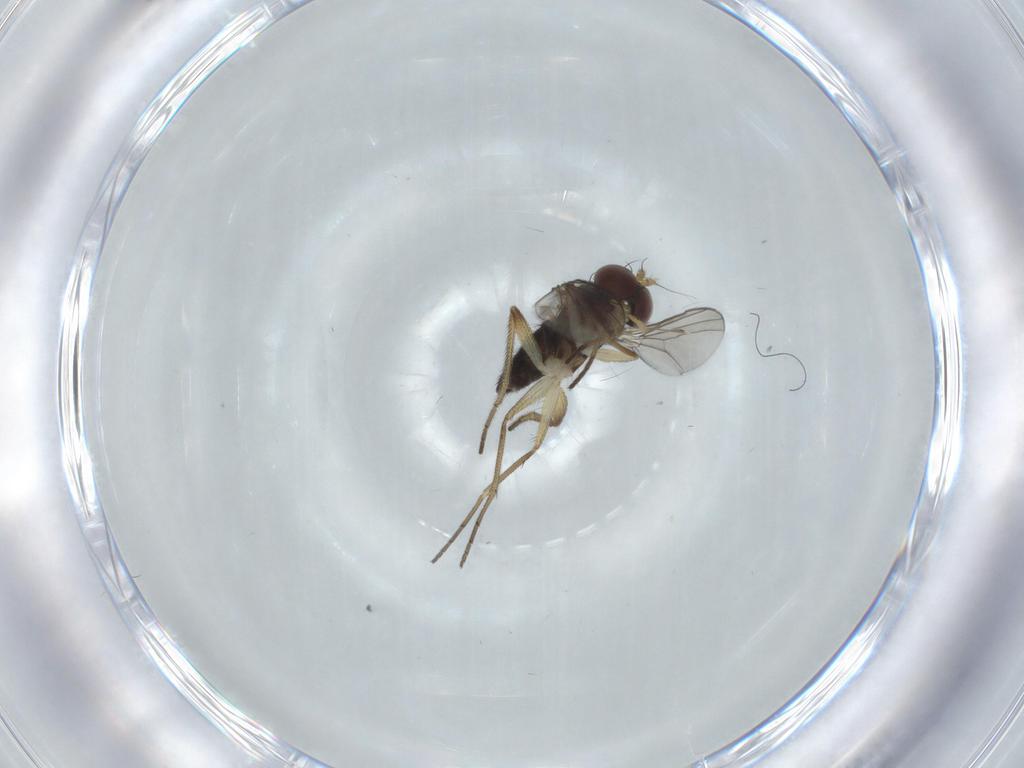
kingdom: Animalia
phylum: Arthropoda
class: Insecta
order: Diptera
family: Dolichopodidae
